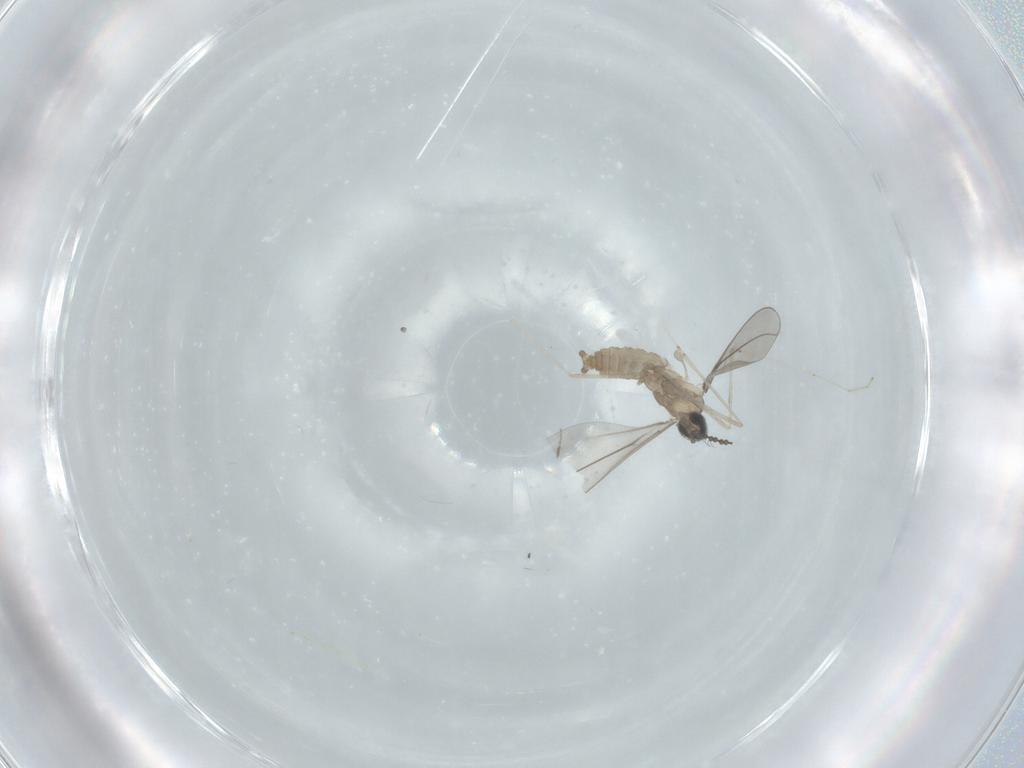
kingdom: Animalia
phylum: Arthropoda
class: Insecta
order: Diptera
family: Cecidomyiidae
